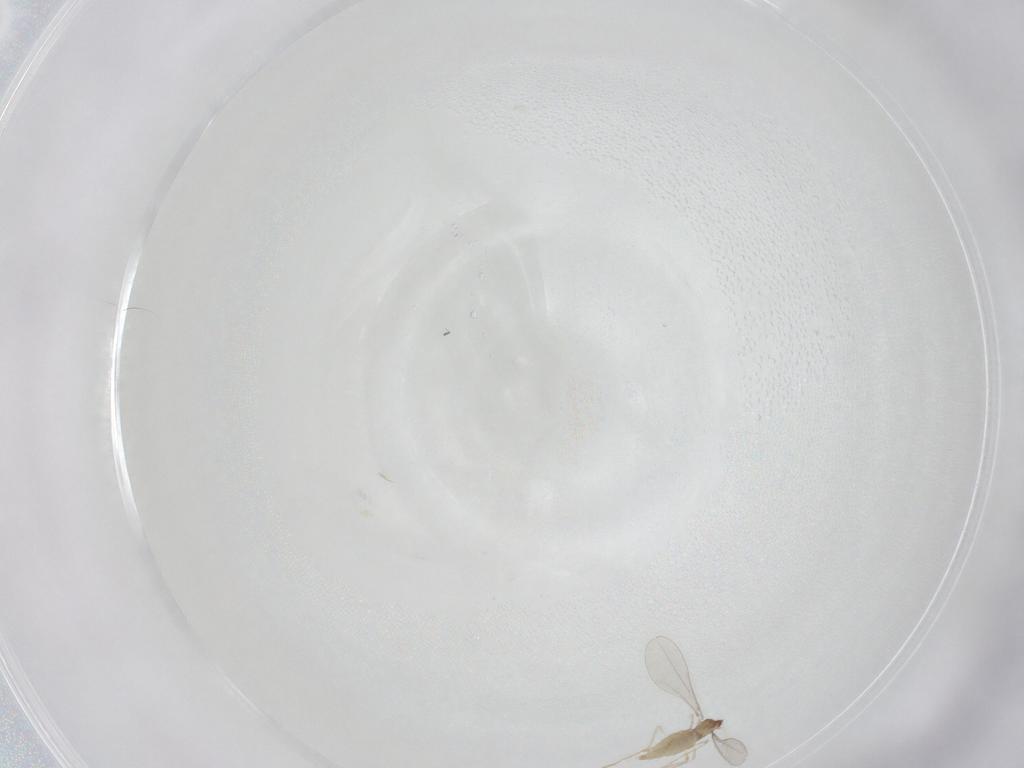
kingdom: Animalia
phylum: Arthropoda
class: Insecta
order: Diptera
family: Cecidomyiidae
